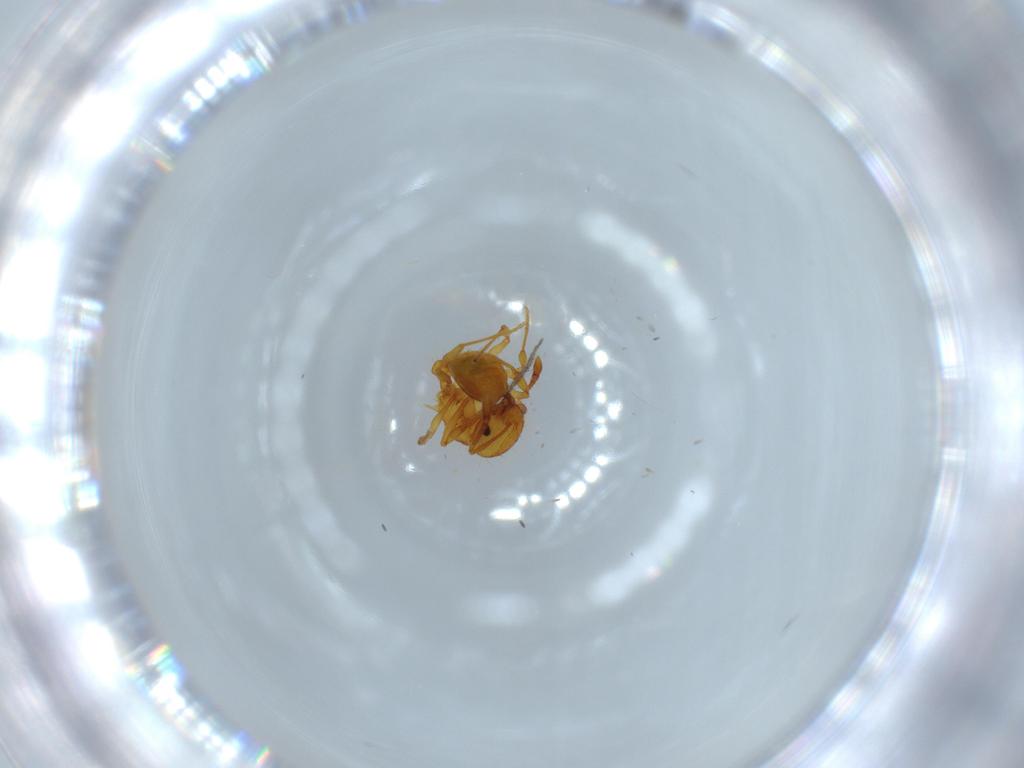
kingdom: Animalia
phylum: Arthropoda
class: Insecta
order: Hymenoptera
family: Formicidae
